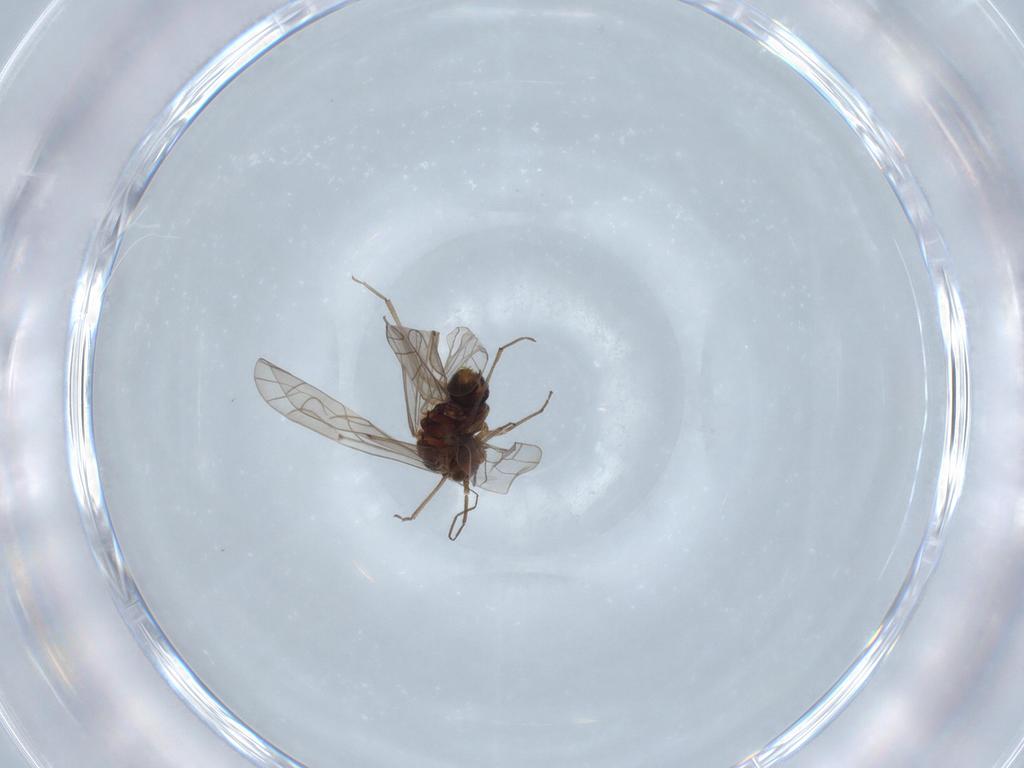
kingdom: Animalia
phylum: Arthropoda
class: Insecta
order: Psocodea
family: Lachesillidae
